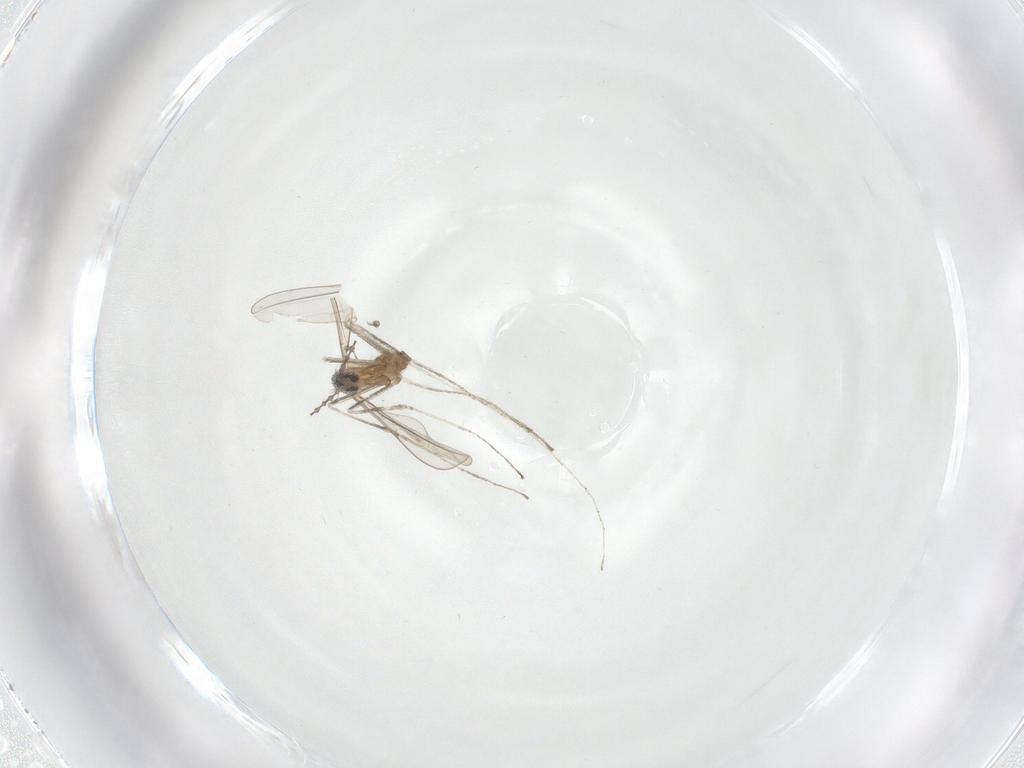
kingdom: Animalia
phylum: Arthropoda
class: Insecta
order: Diptera
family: Cecidomyiidae
